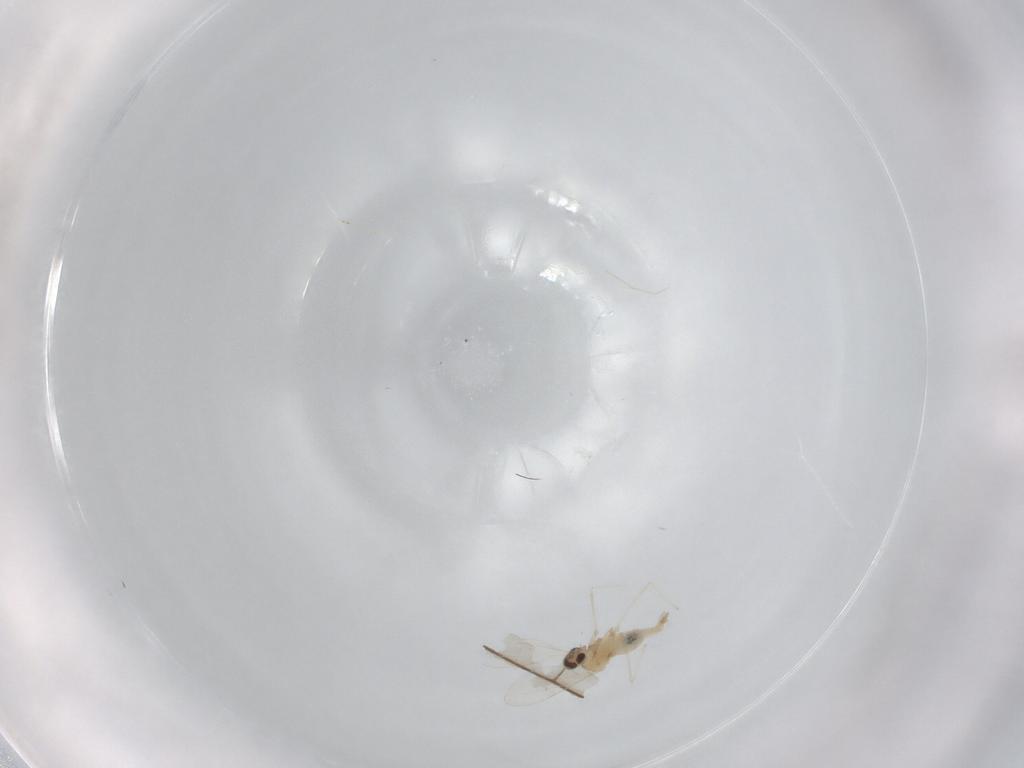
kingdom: Animalia
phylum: Arthropoda
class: Insecta
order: Diptera
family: Cecidomyiidae
